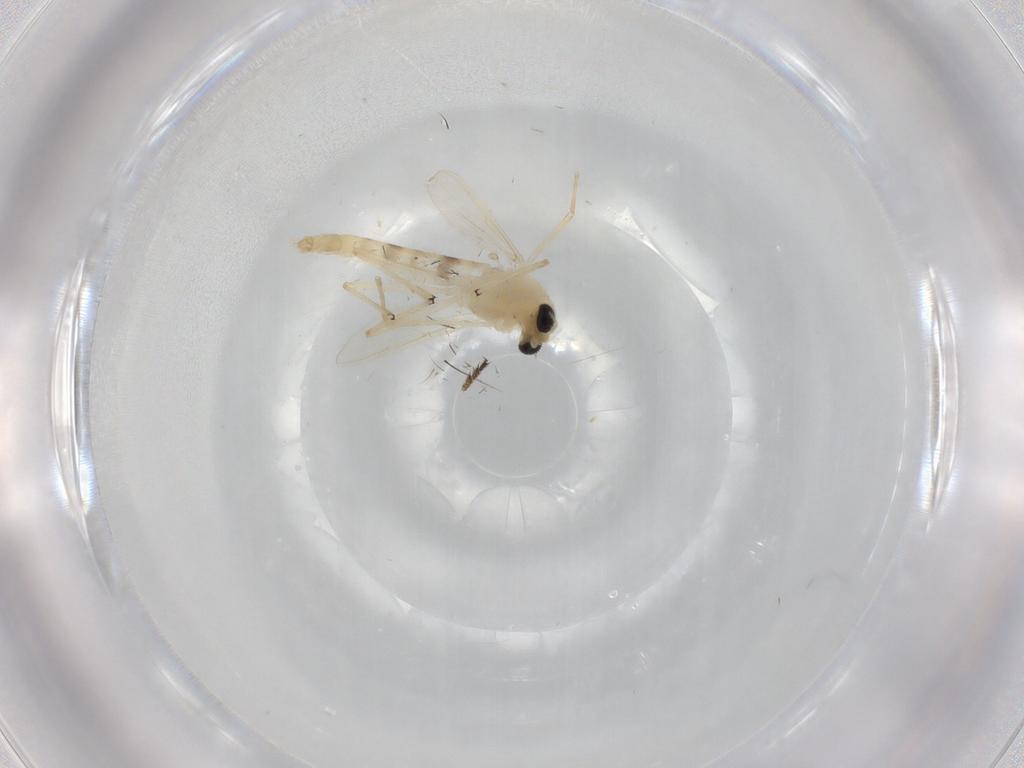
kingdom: Animalia
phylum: Arthropoda
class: Insecta
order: Diptera
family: Chironomidae
